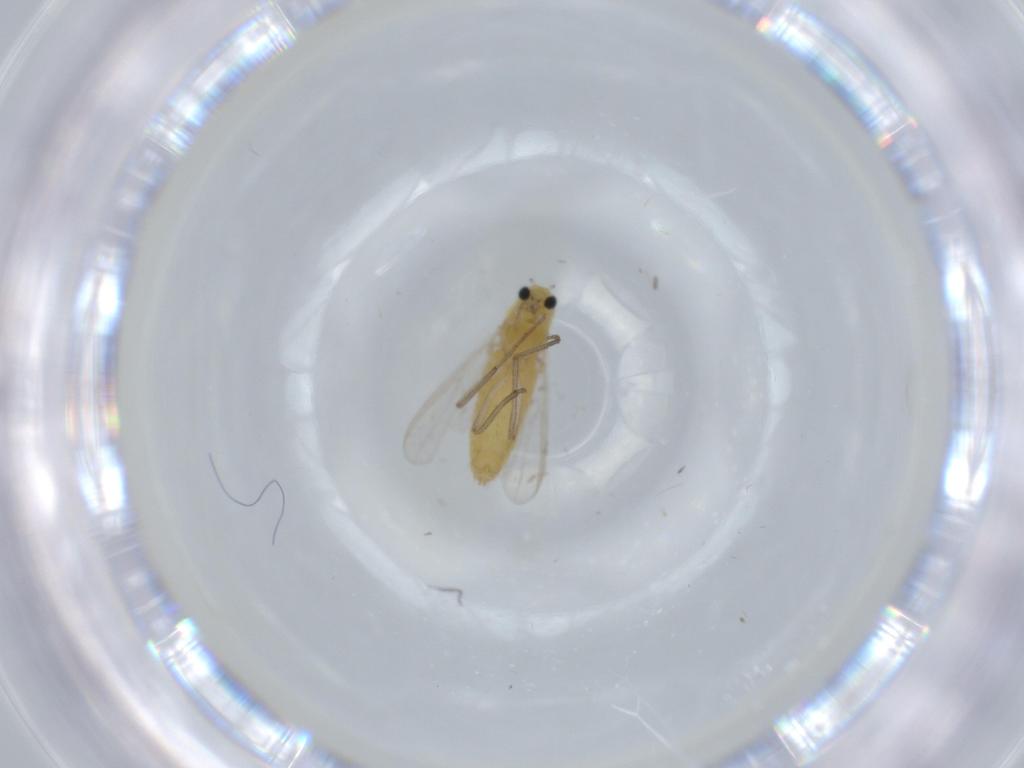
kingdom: Animalia
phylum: Arthropoda
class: Insecta
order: Diptera
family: Chironomidae
